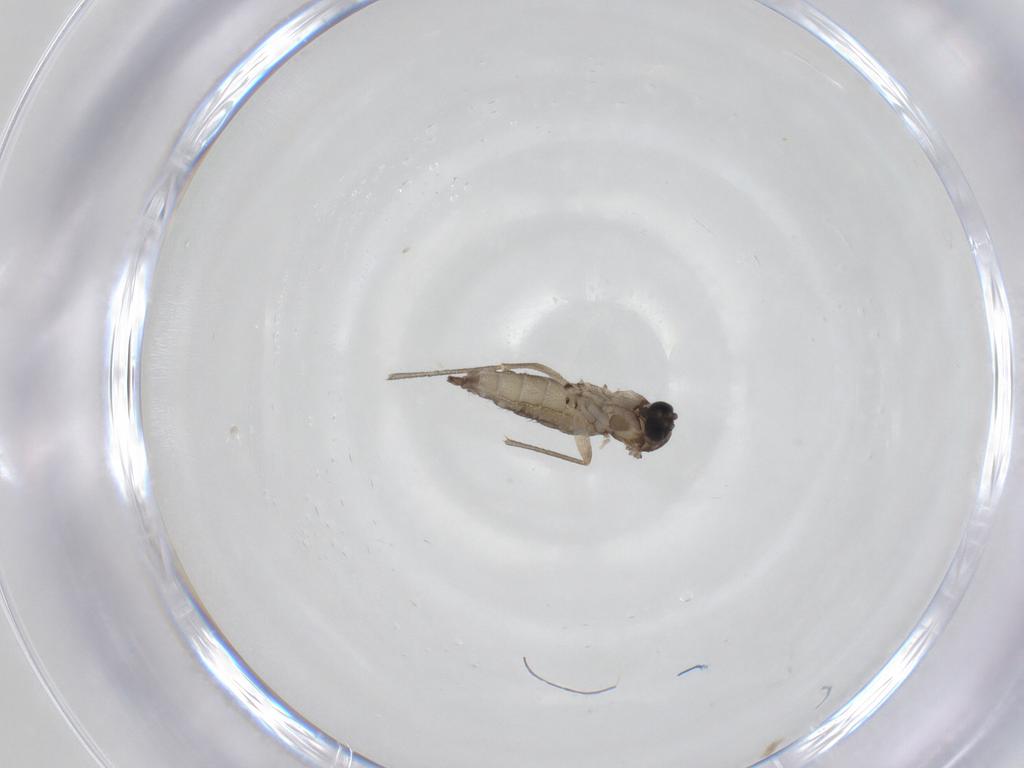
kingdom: Animalia
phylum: Arthropoda
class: Insecta
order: Diptera
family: Sciaridae
